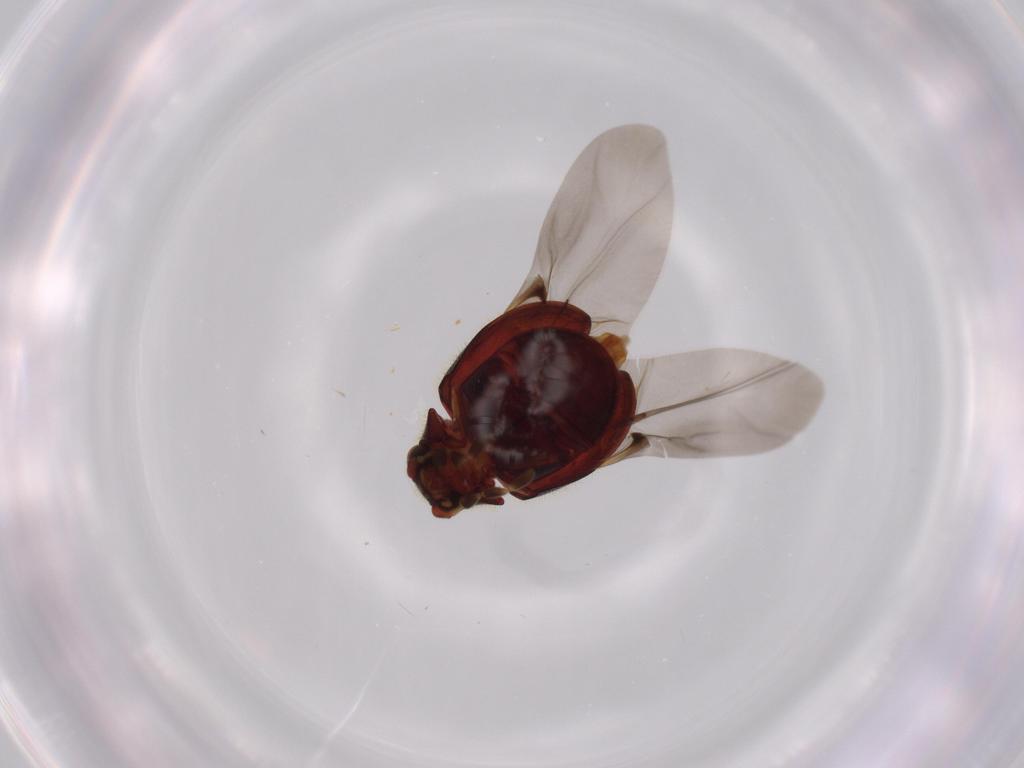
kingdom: Animalia
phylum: Arthropoda
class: Insecta
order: Coleoptera
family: Ptinidae
